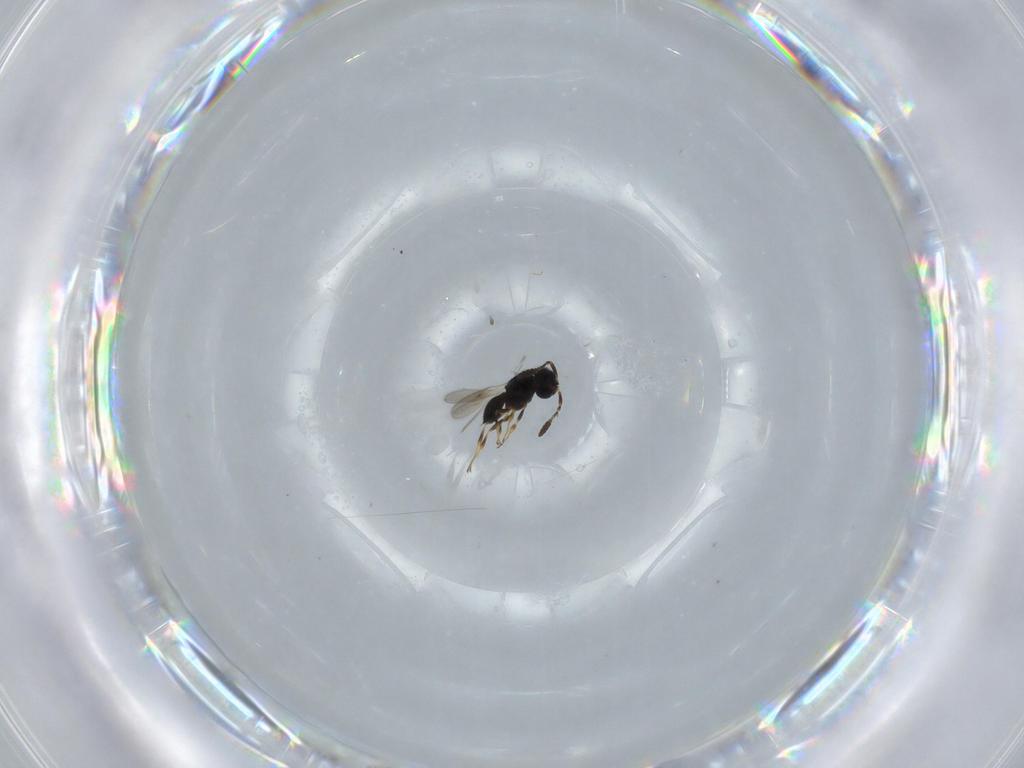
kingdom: Animalia
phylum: Arthropoda
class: Insecta
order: Hymenoptera
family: Scelionidae
